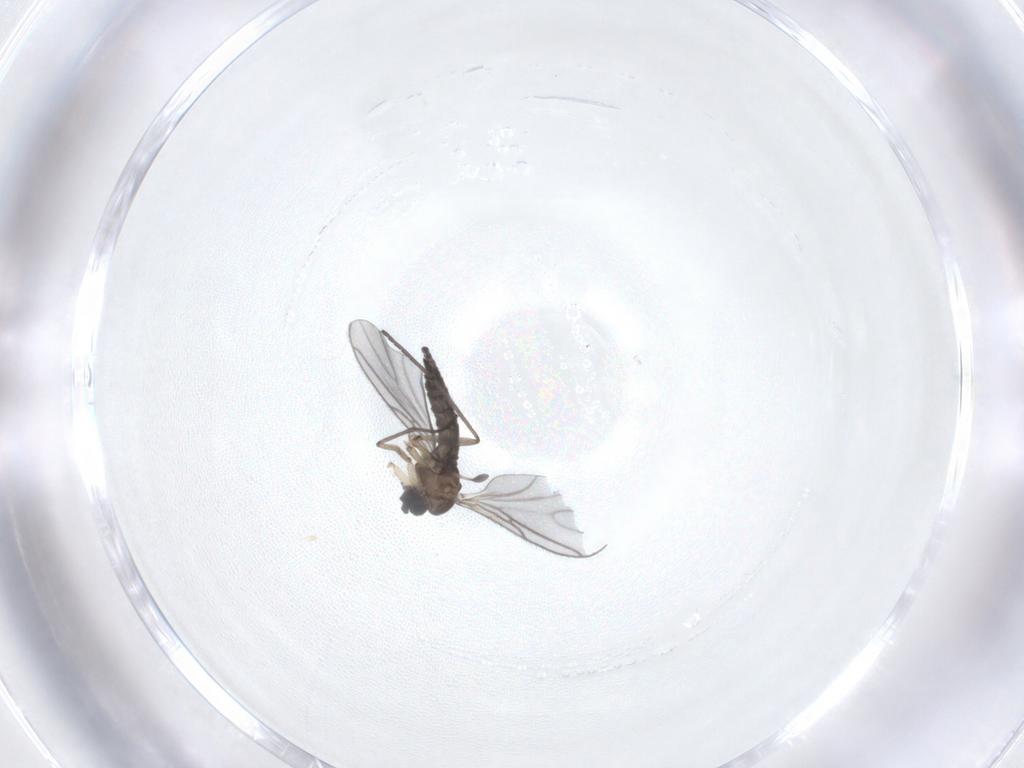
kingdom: Animalia
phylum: Arthropoda
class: Insecta
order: Diptera
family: Sciaridae
